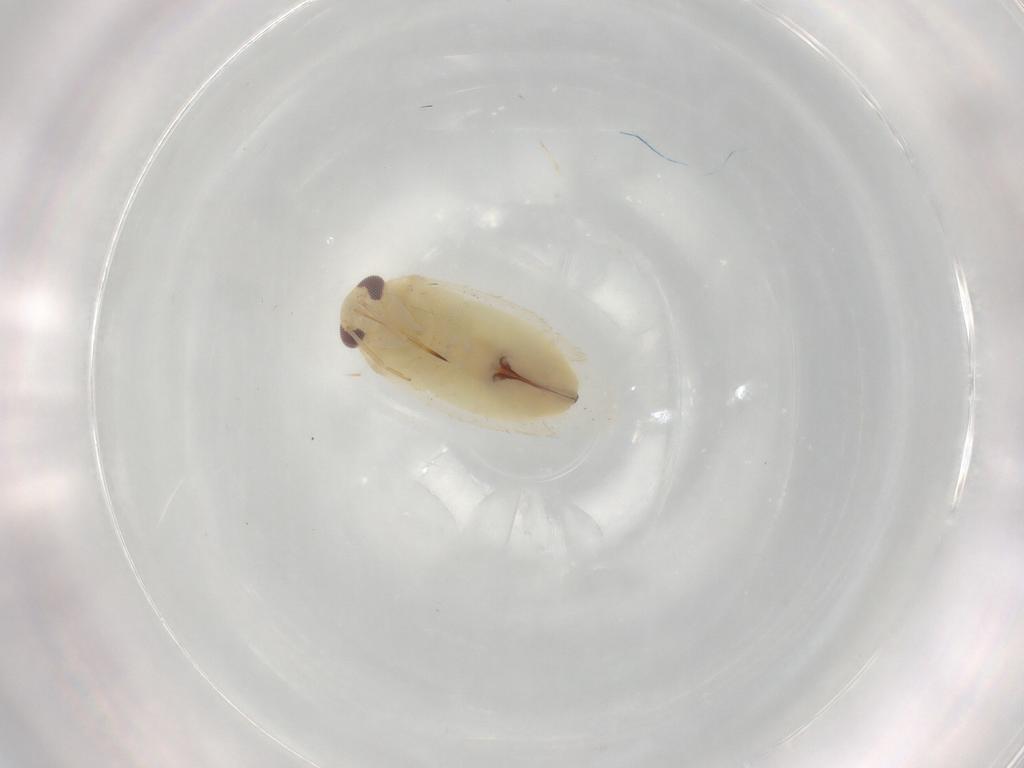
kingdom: Animalia
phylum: Arthropoda
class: Insecta
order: Hemiptera
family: Miridae
